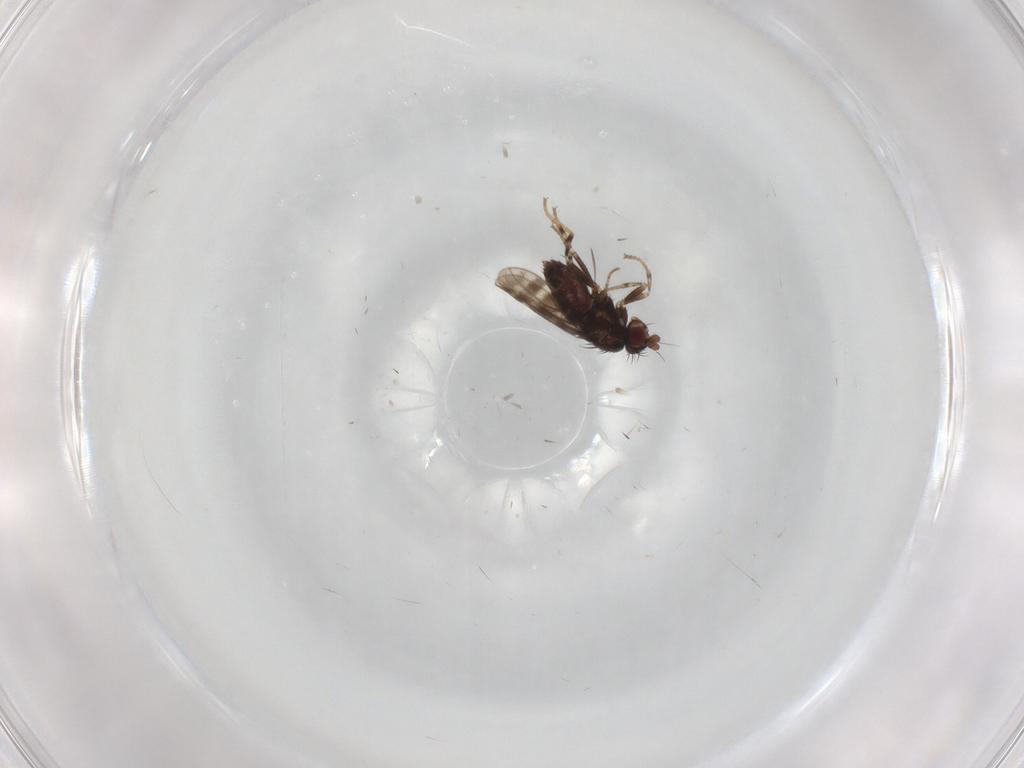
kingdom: Animalia
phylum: Arthropoda
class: Insecta
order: Diptera
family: Sphaeroceridae
